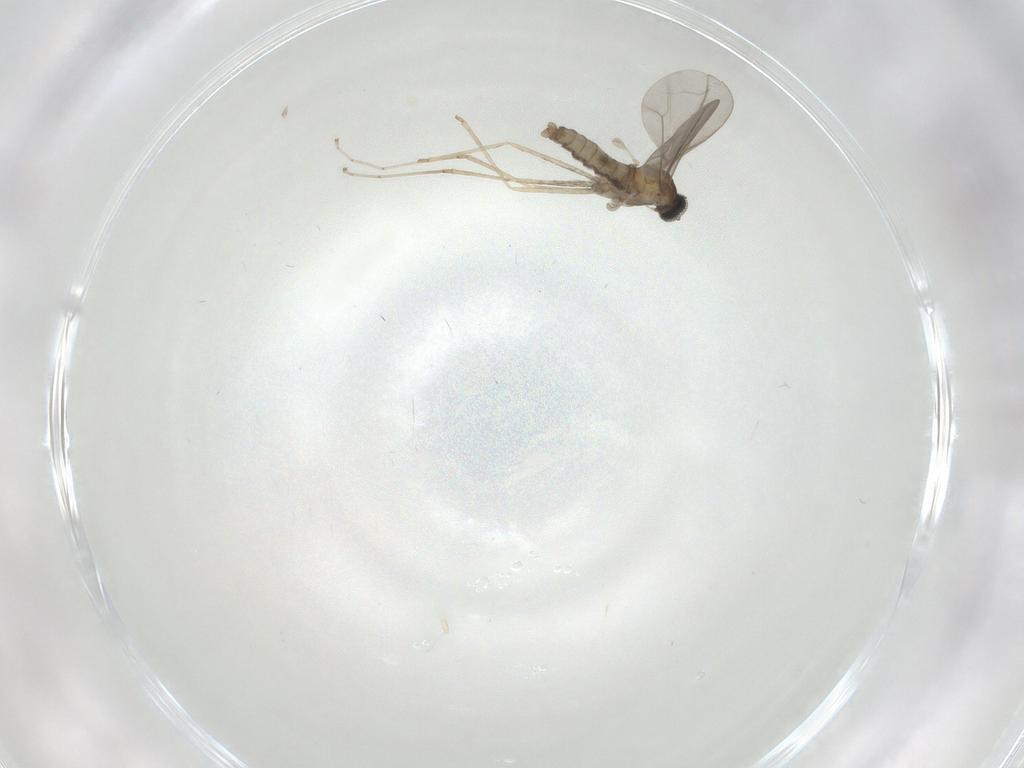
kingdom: Animalia
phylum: Arthropoda
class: Insecta
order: Diptera
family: Cecidomyiidae
